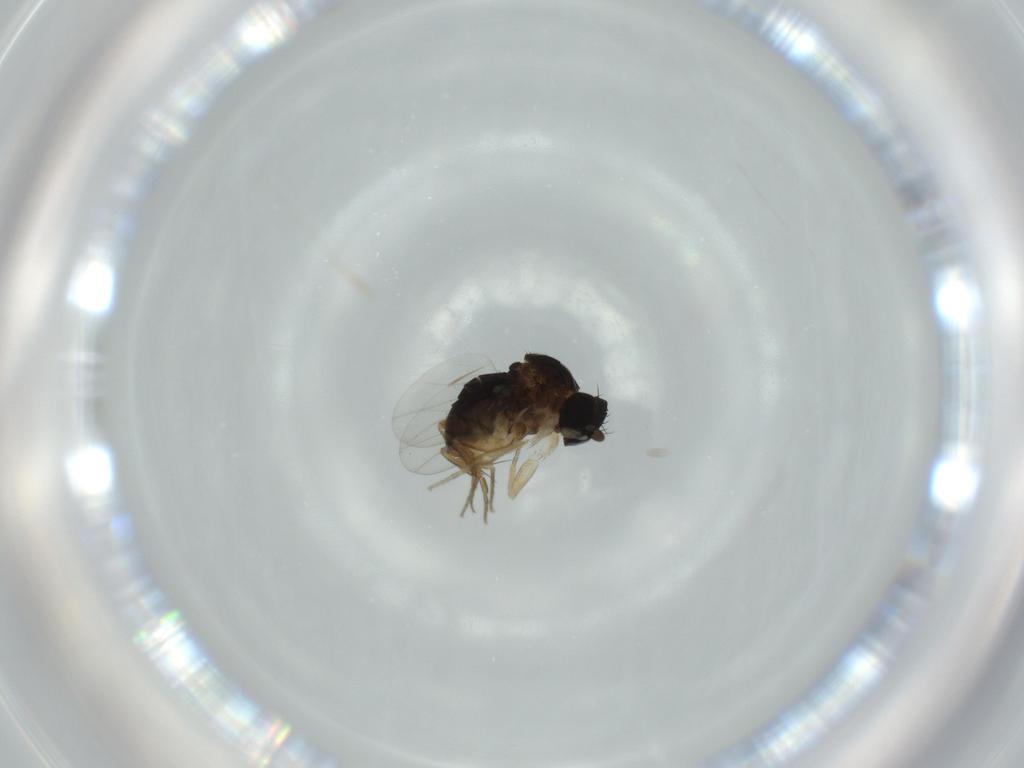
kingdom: Animalia
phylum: Arthropoda
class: Insecta
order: Diptera
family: Phoridae
